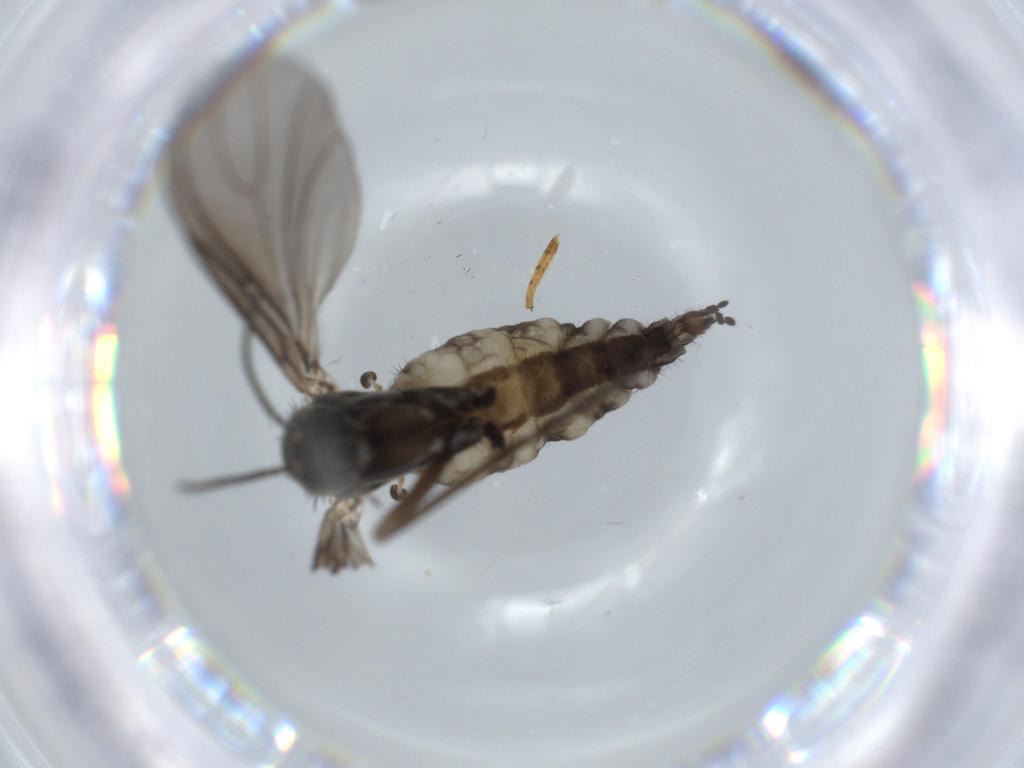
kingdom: Animalia
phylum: Arthropoda
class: Insecta
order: Diptera
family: Sciaridae
